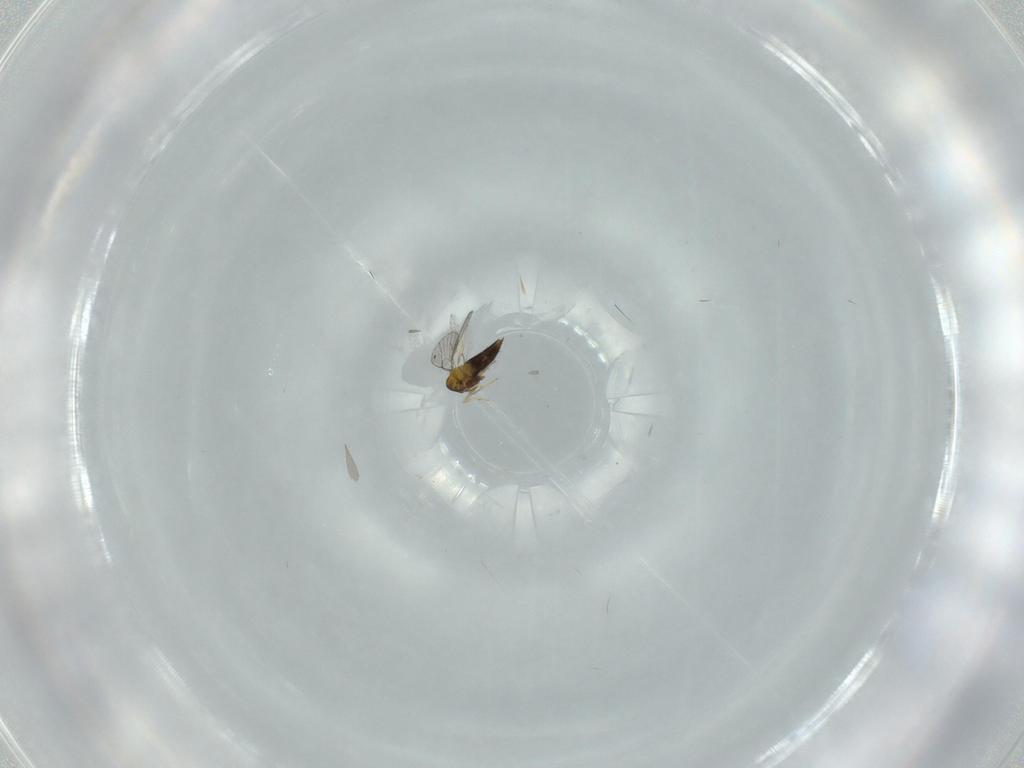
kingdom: Animalia
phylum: Arthropoda
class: Insecta
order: Hymenoptera
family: Trichogrammatidae
